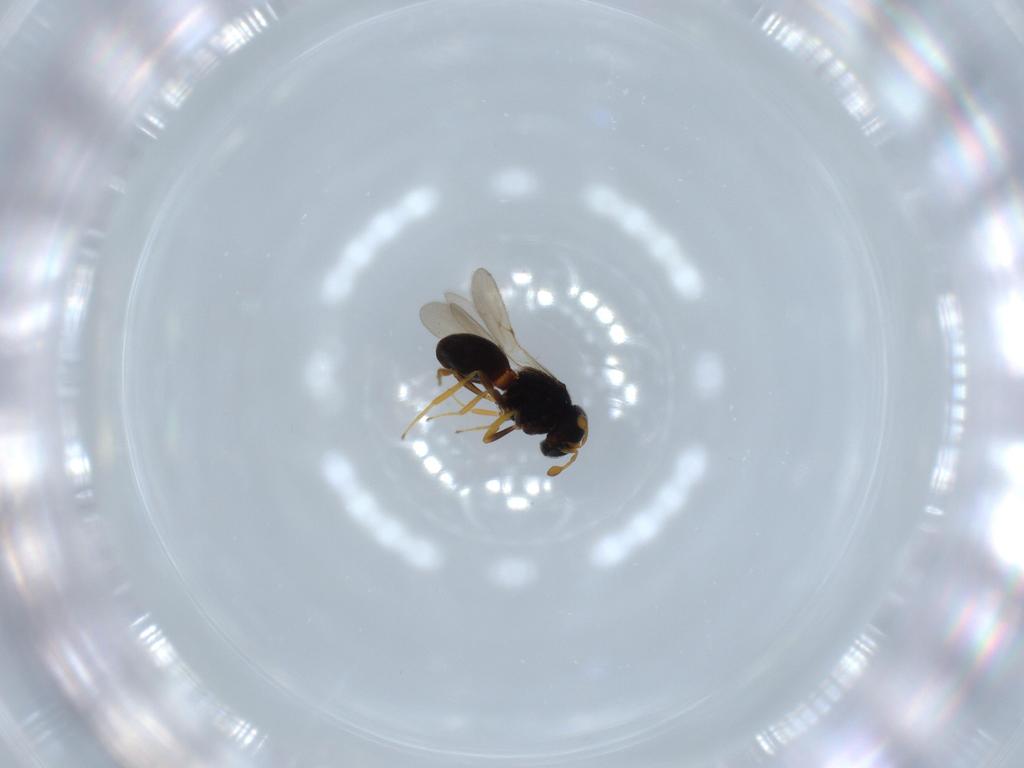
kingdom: Animalia
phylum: Arthropoda
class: Insecta
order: Hymenoptera
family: Scelionidae
